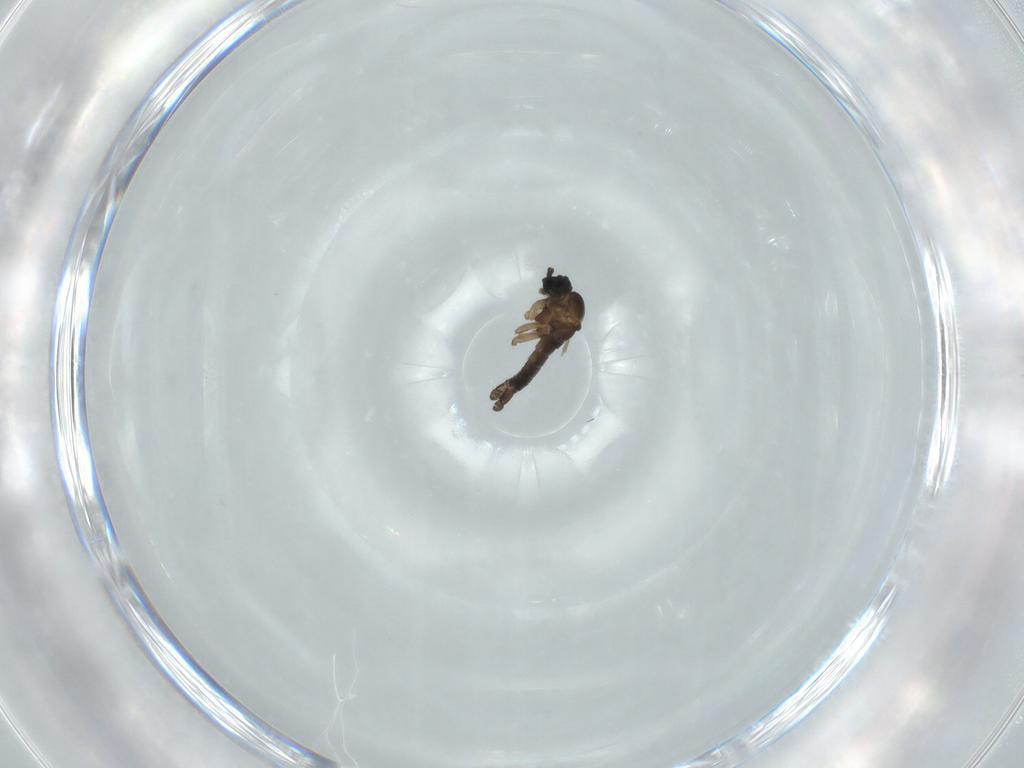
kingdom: Animalia
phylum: Arthropoda
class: Insecta
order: Diptera
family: Sciaridae
